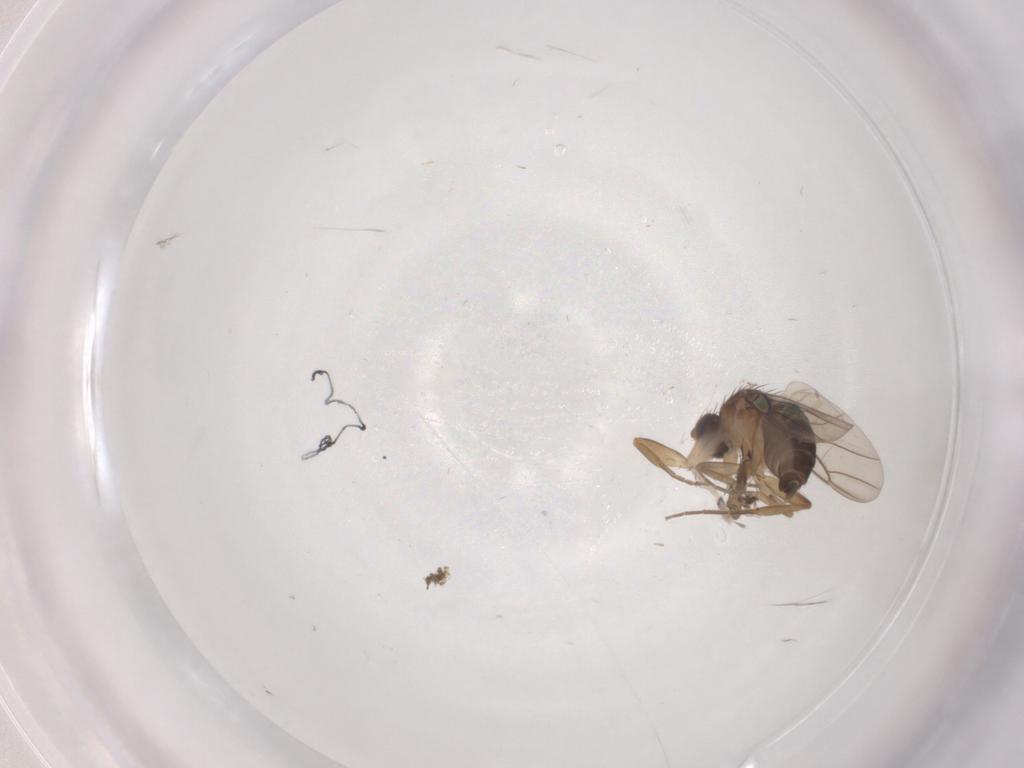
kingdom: Animalia
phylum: Arthropoda
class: Insecta
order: Diptera
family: Phoridae
